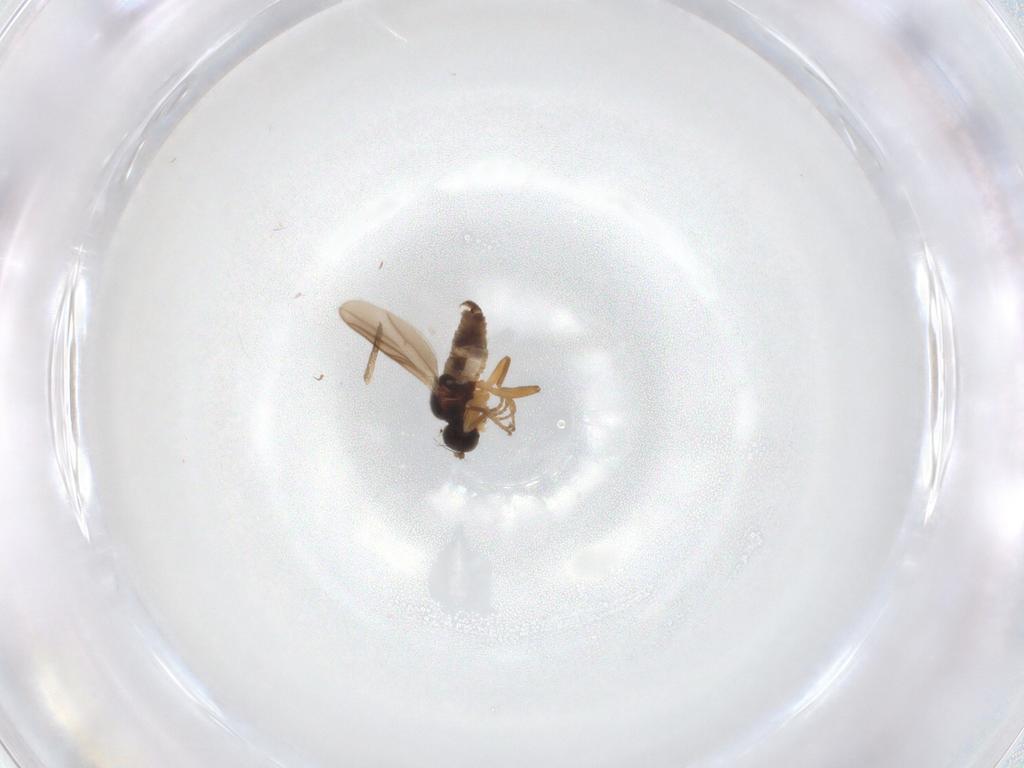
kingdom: Animalia
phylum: Arthropoda
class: Insecta
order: Diptera
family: Hybotidae
